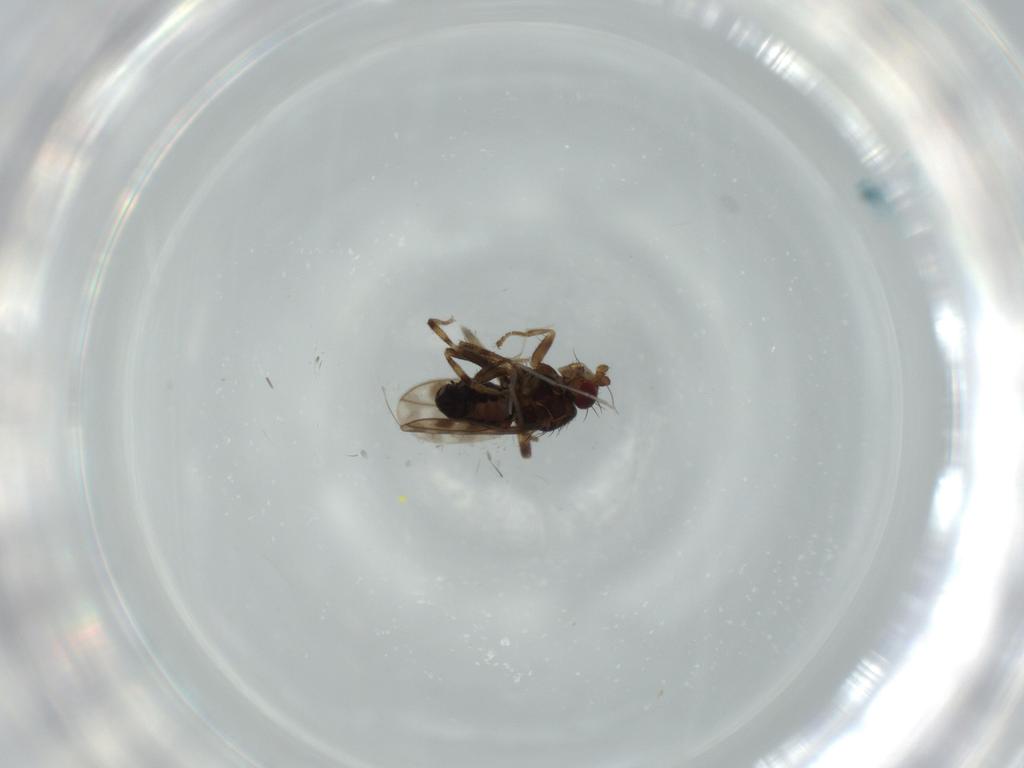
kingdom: Animalia
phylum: Arthropoda
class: Insecta
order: Diptera
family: Sphaeroceridae
